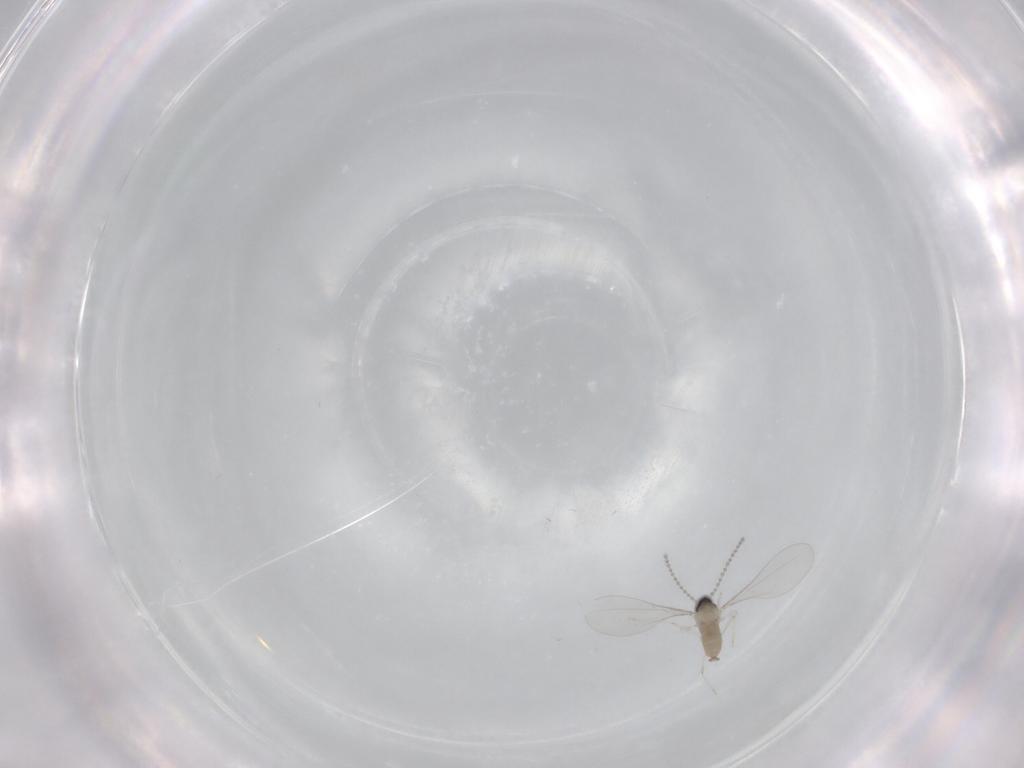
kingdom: Animalia
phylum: Arthropoda
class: Insecta
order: Diptera
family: Cecidomyiidae
